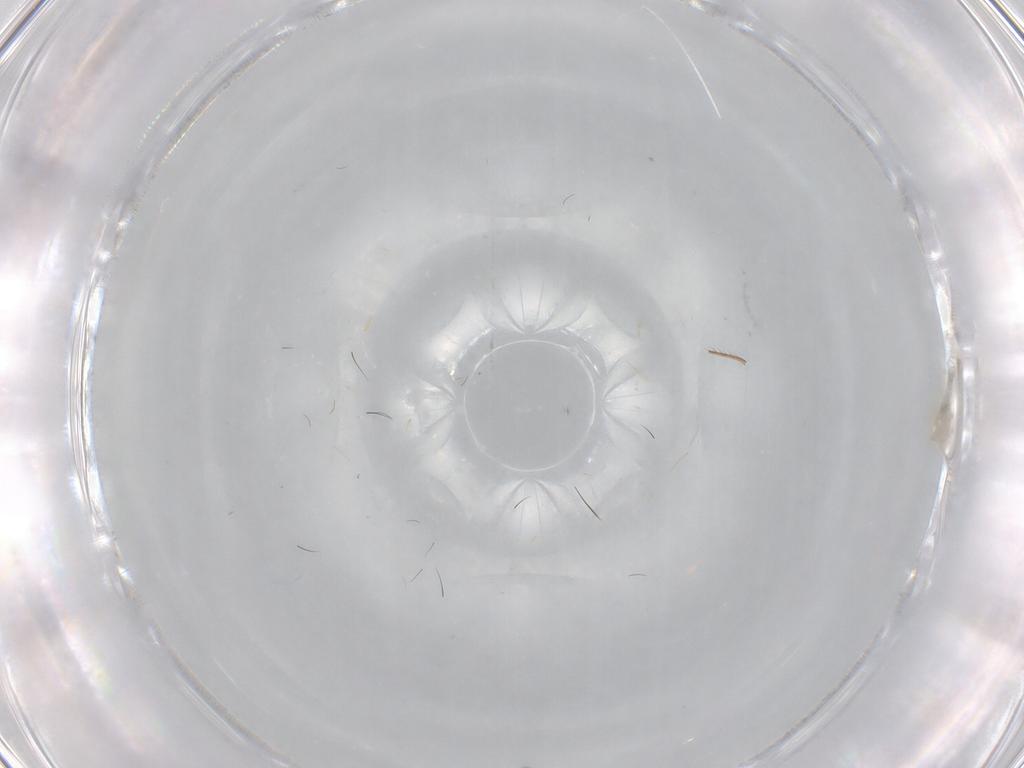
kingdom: Animalia
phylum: Arthropoda
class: Insecta
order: Diptera
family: Cecidomyiidae
